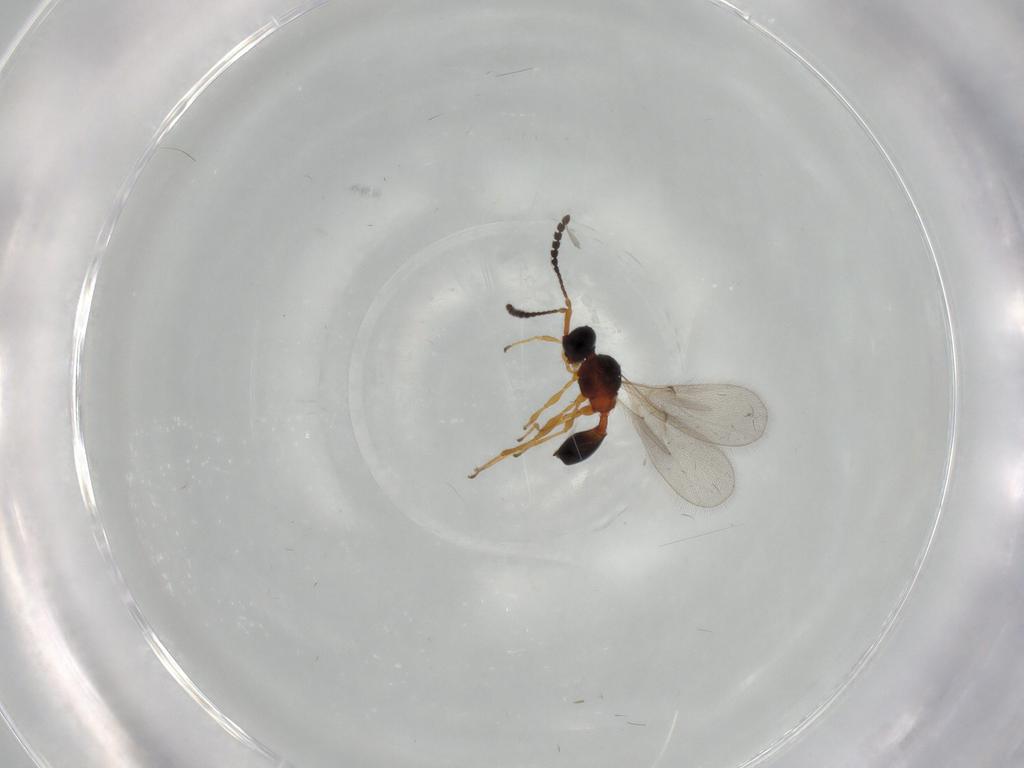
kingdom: Animalia
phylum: Arthropoda
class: Insecta
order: Hymenoptera
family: Diapriidae
